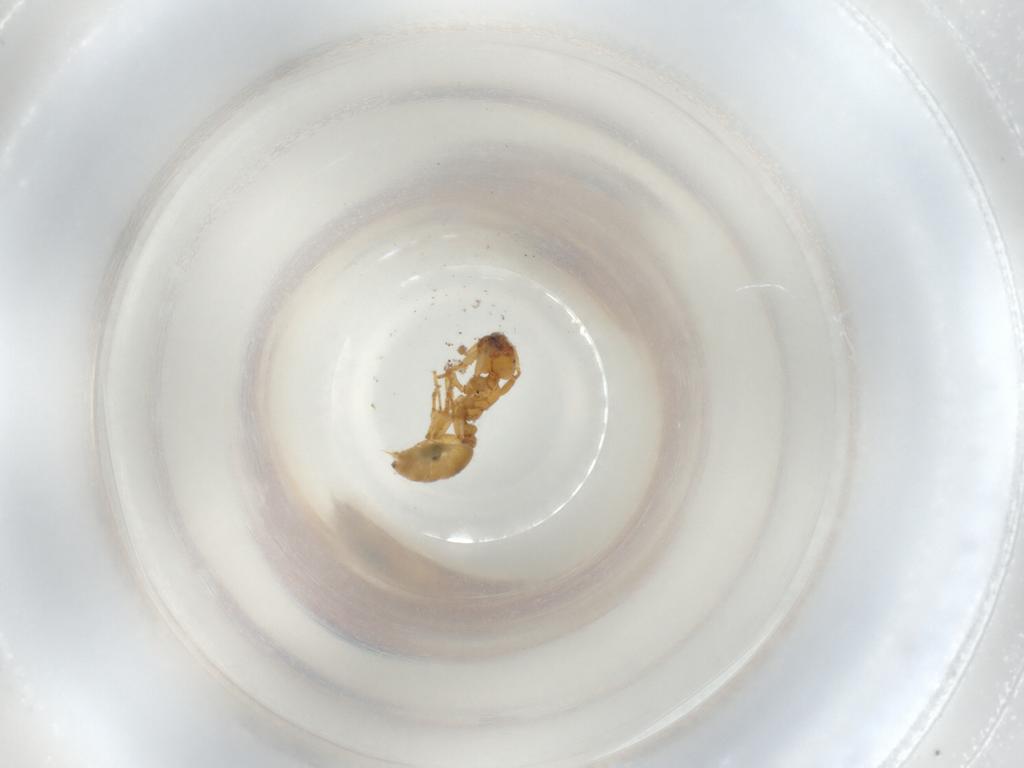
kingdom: Animalia
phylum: Arthropoda
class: Insecta
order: Hymenoptera
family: Formicidae
